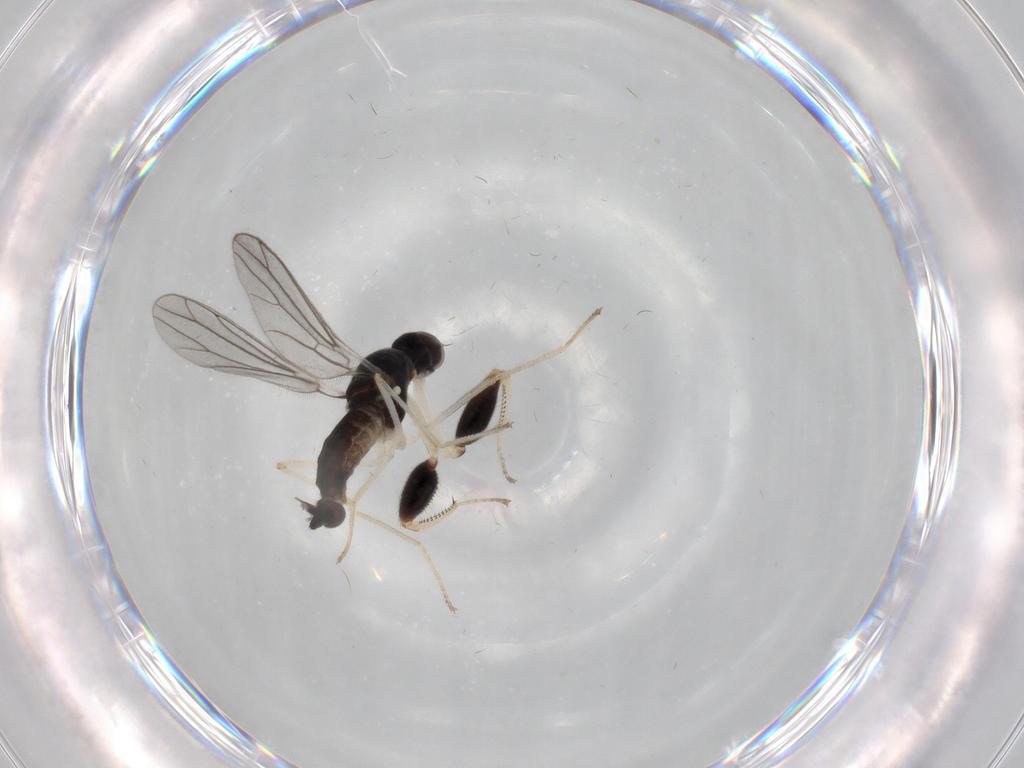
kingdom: Animalia
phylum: Arthropoda
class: Insecta
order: Diptera
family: Empididae
